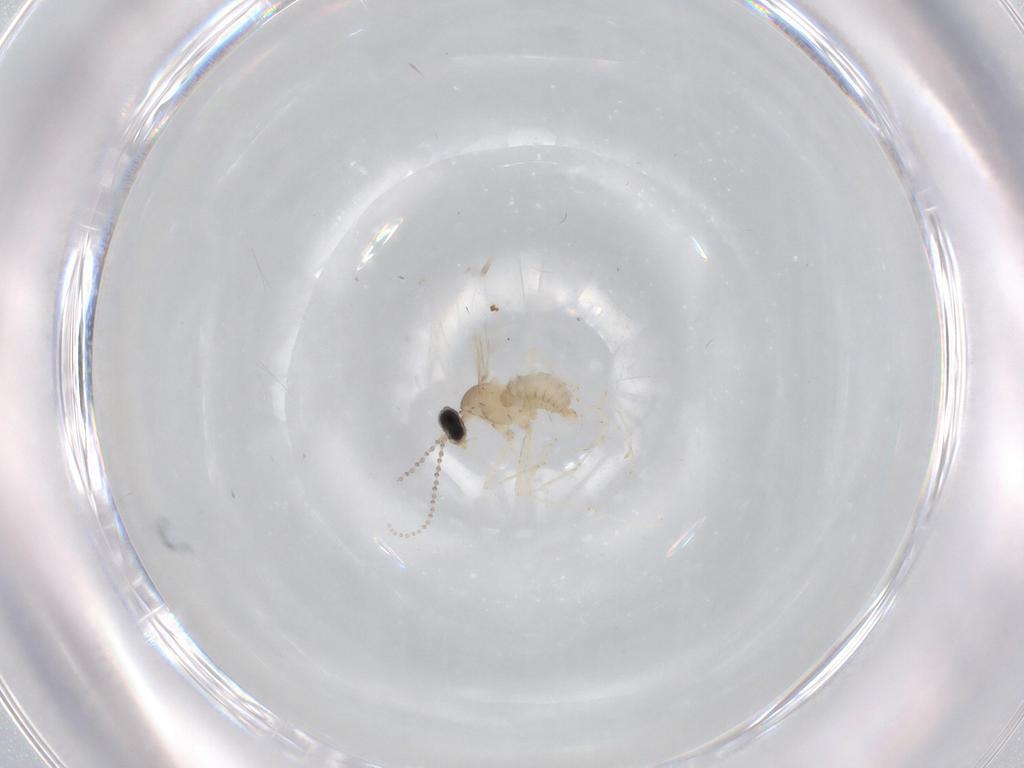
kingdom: Animalia
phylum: Arthropoda
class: Insecta
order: Diptera
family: Cecidomyiidae
